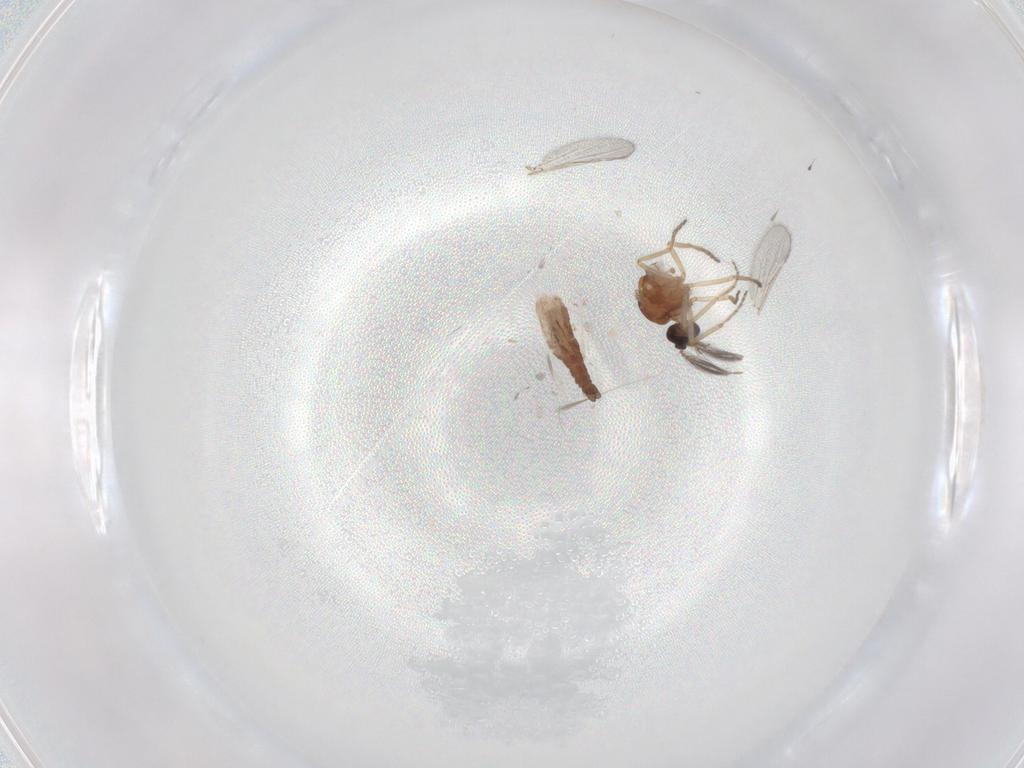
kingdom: Animalia
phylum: Arthropoda
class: Insecta
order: Diptera
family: Ceratopogonidae
